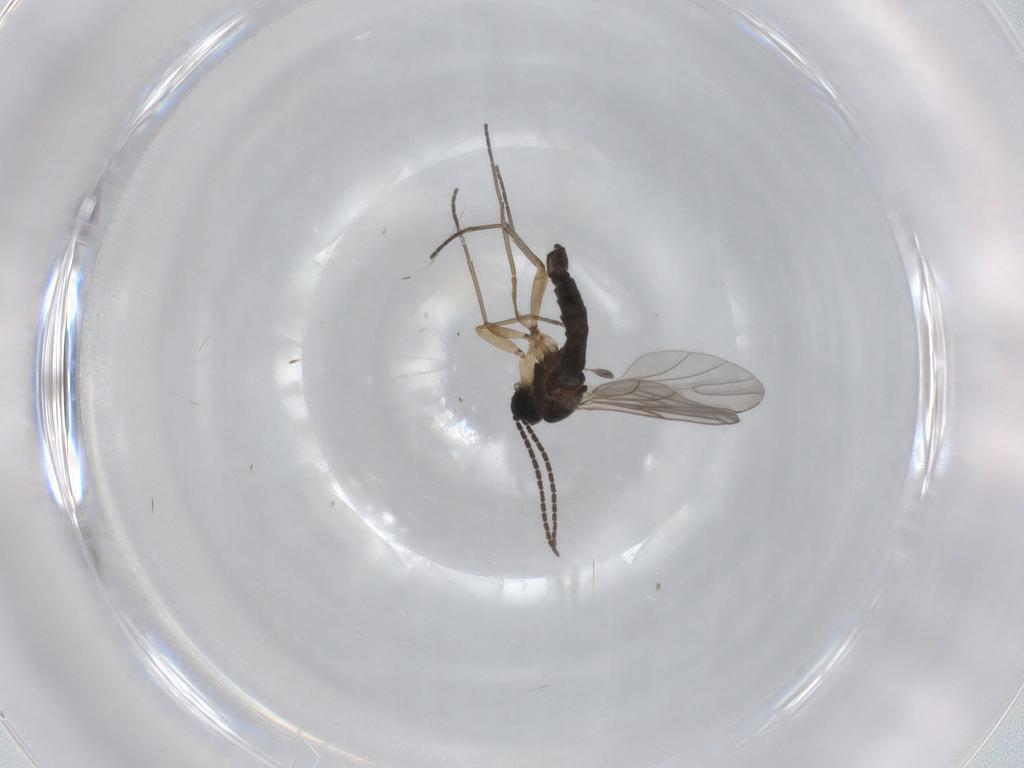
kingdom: Animalia
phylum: Arthropoda
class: Insecta
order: Diptera
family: Sciaridae
